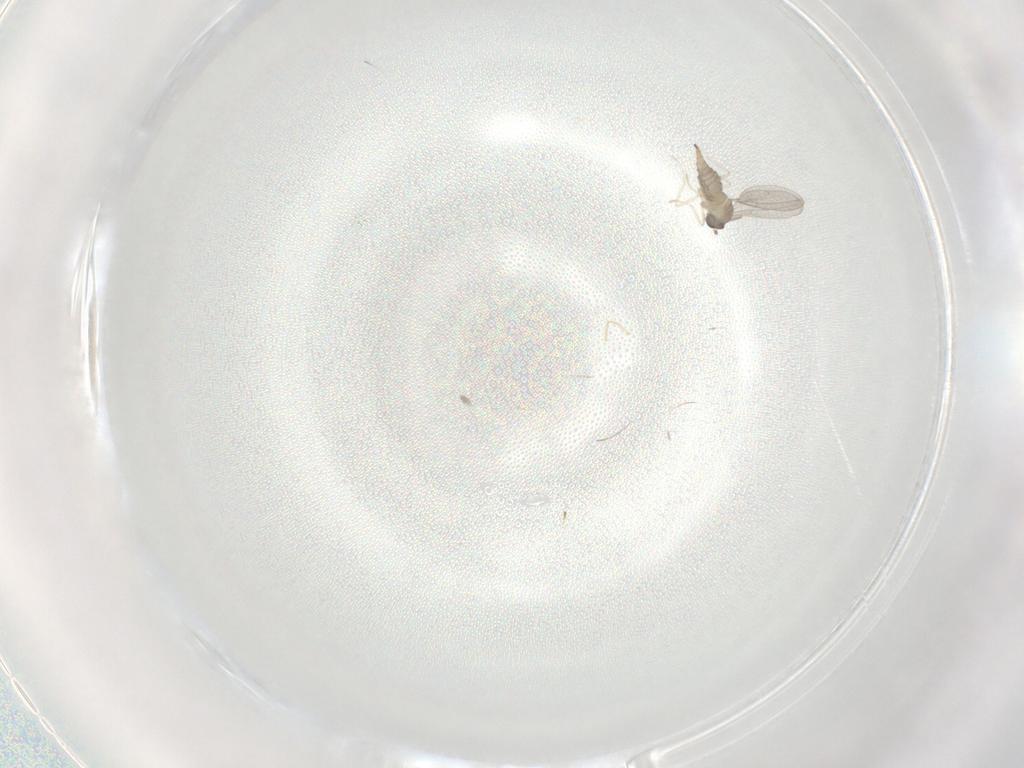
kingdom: Animalia
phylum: Arthropoda
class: Insecta
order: Diptera
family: Cecidomyiidae
